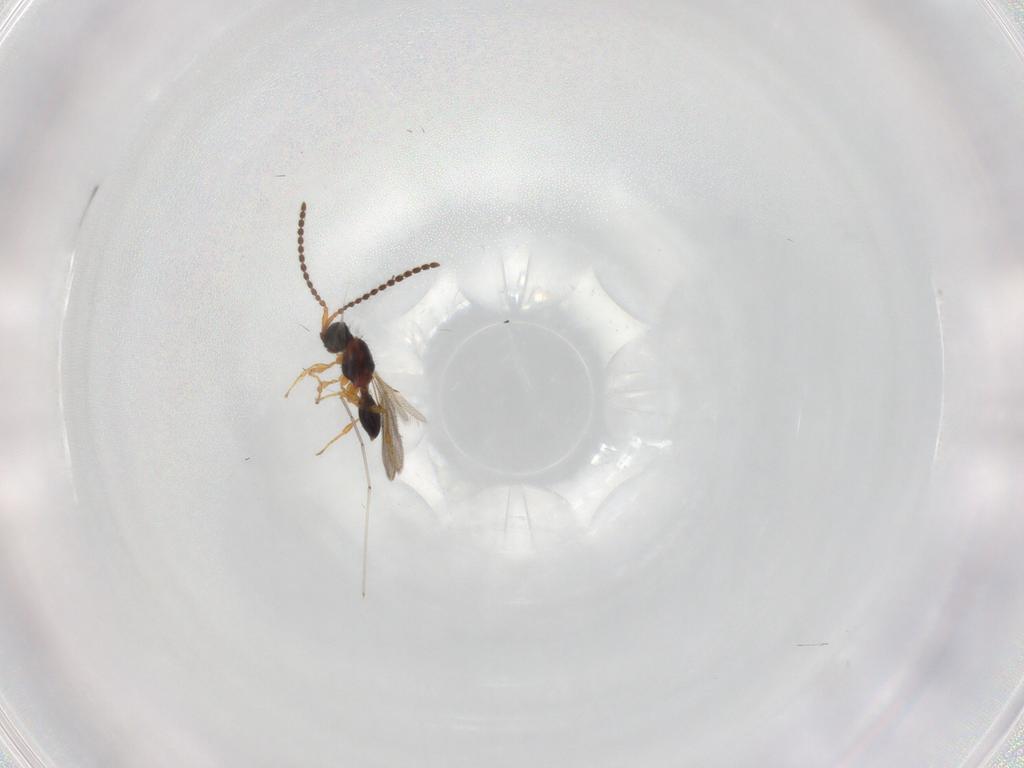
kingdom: Animalia
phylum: Arthropoda
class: Insecta
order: Hymenoptera
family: Diapriidae
